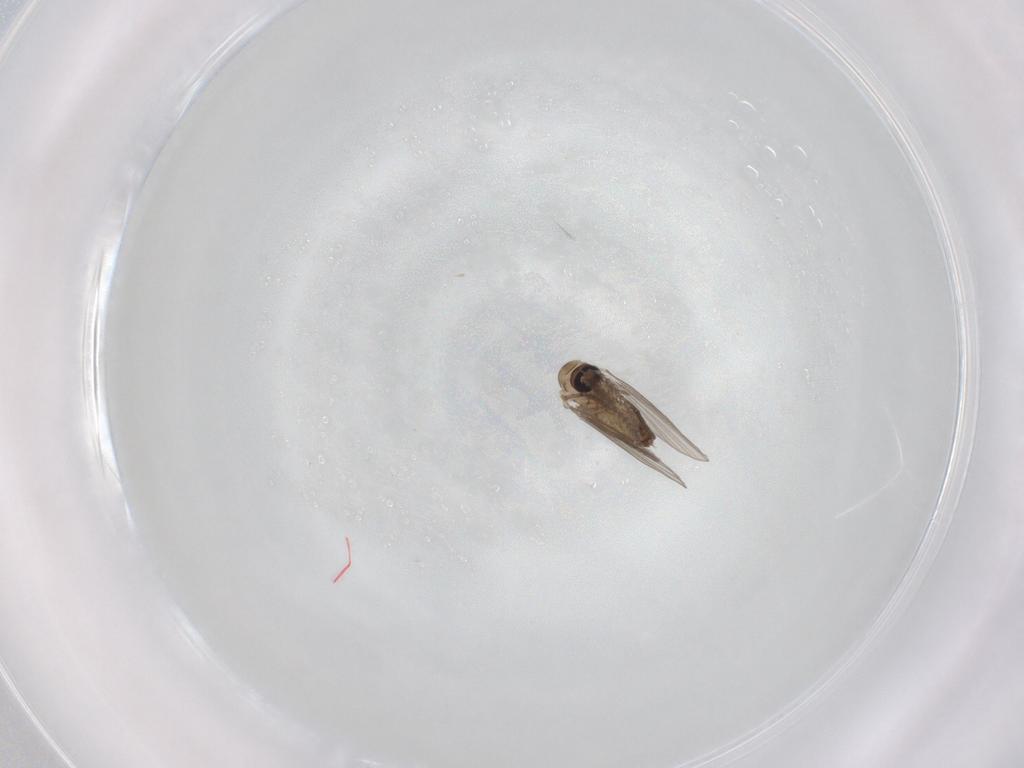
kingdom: Animalia
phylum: Arthropoda
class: Insecta
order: Diptera
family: Psychodidae
